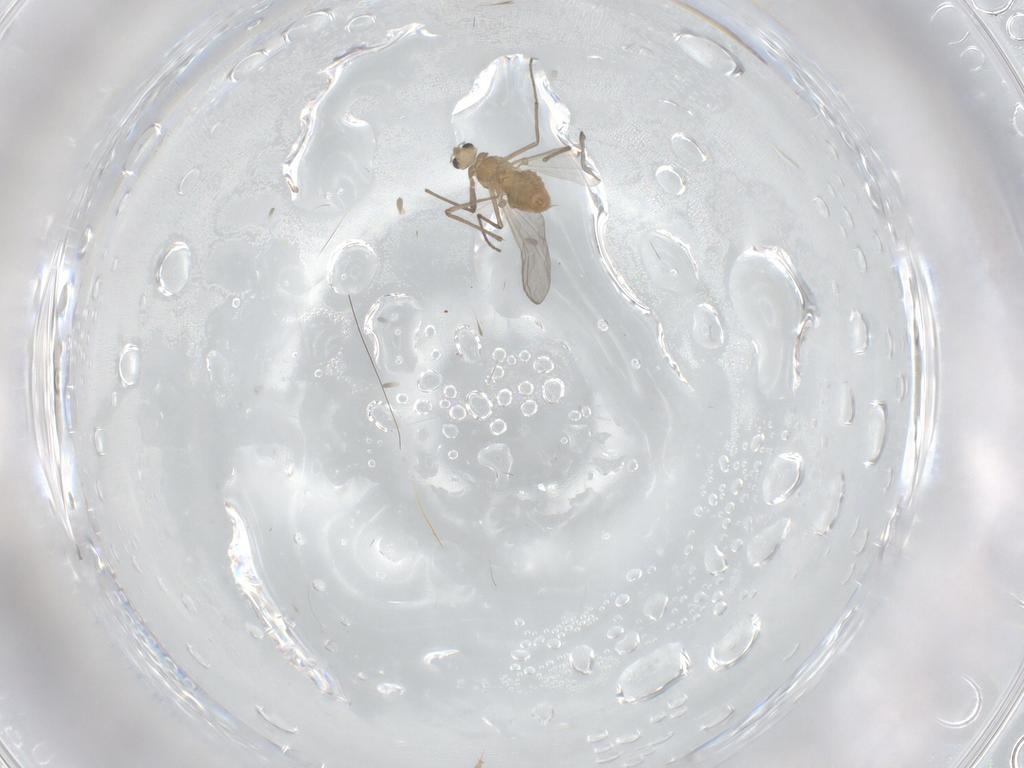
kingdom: Animalia
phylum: Arthropoda
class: Insecta
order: Diptera
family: Chironomidae
